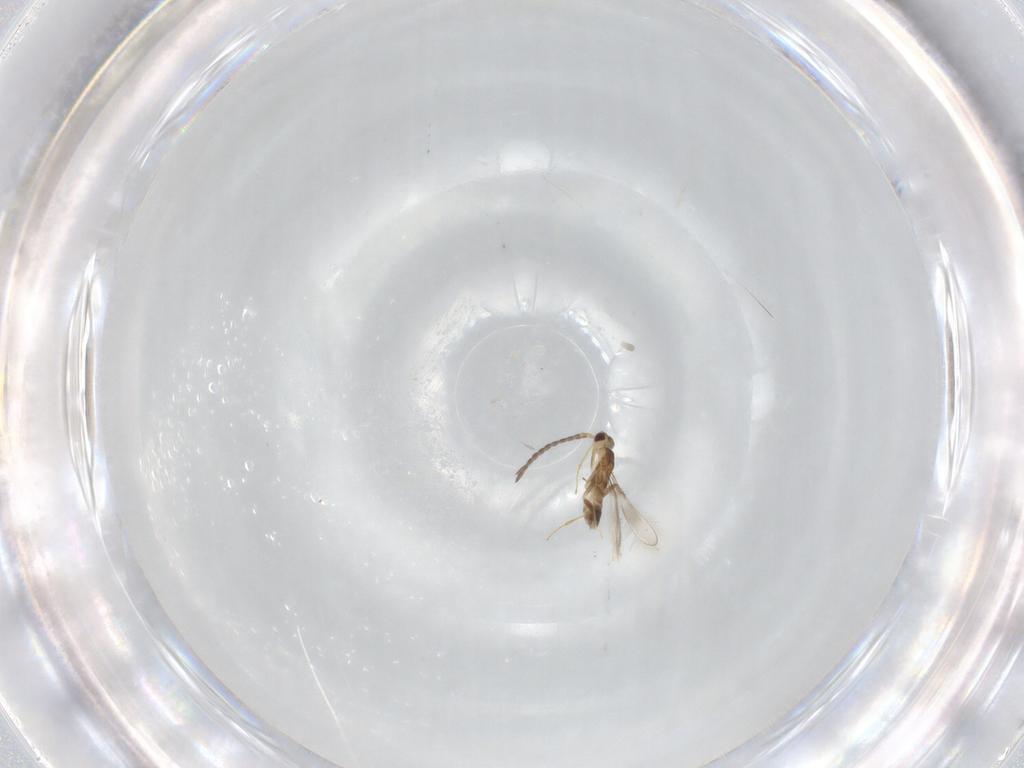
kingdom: Animalia
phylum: Arthropoda
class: Insecta
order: Hymenoptera
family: Mymaridae
